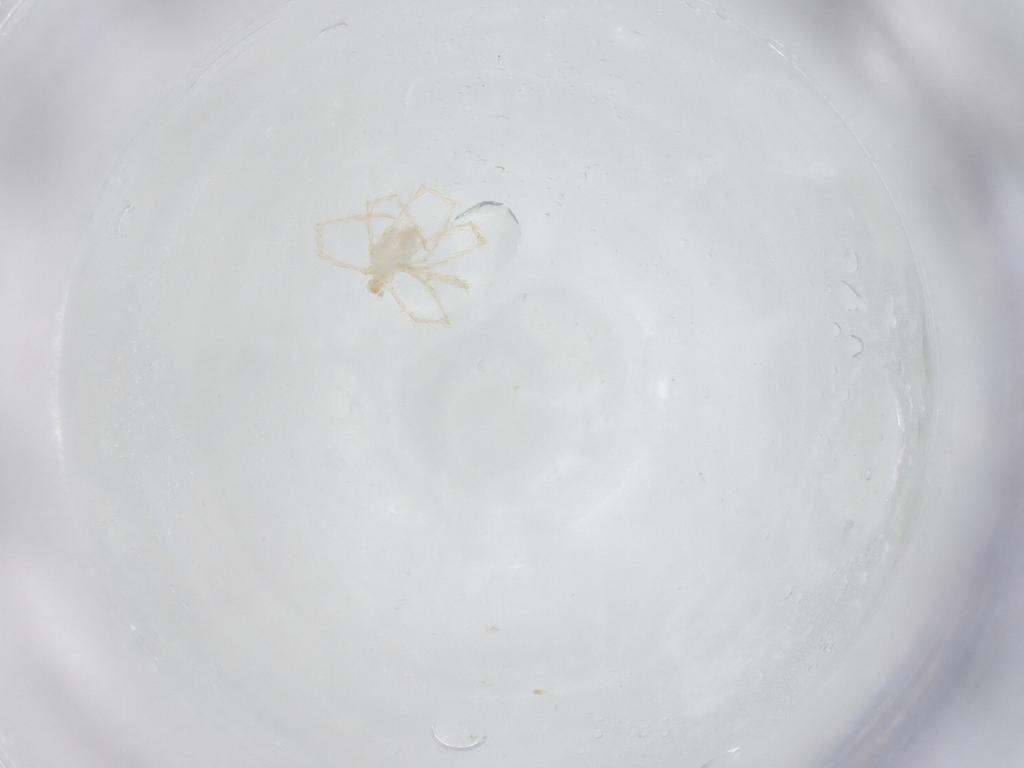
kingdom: Animalia
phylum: Arthropoda
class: Arachnida
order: Trombidiformes
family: Erythraeidae
